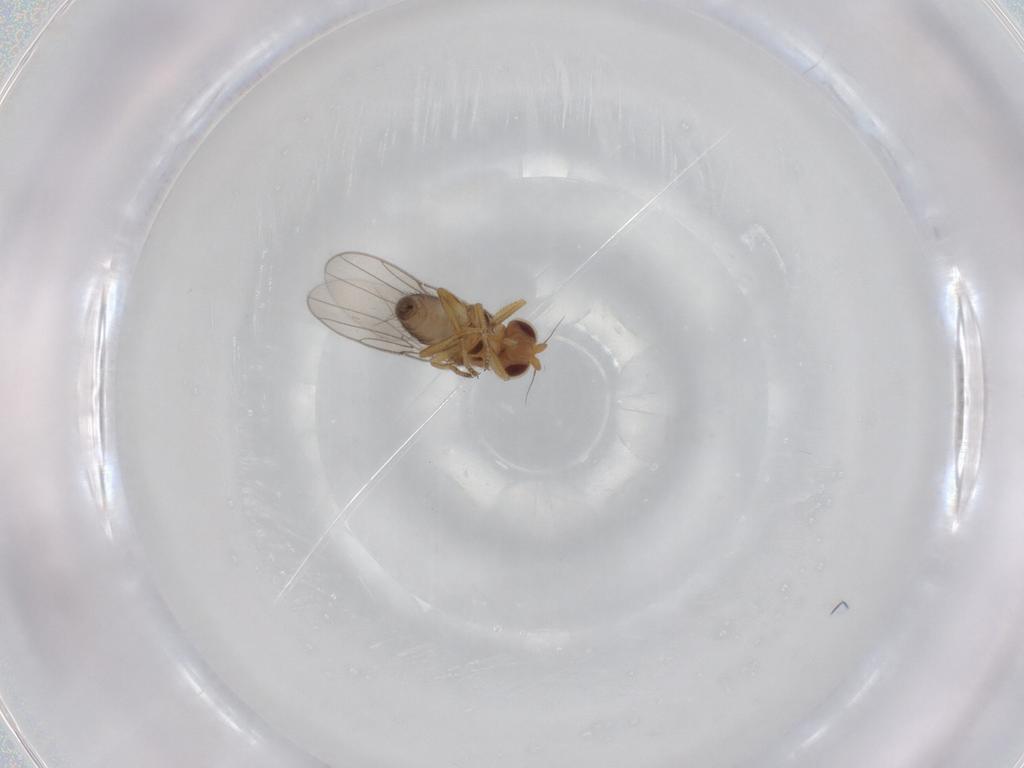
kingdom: Animalia
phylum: Arthropoda
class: Insecta
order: Diptera
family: Chloropidae
